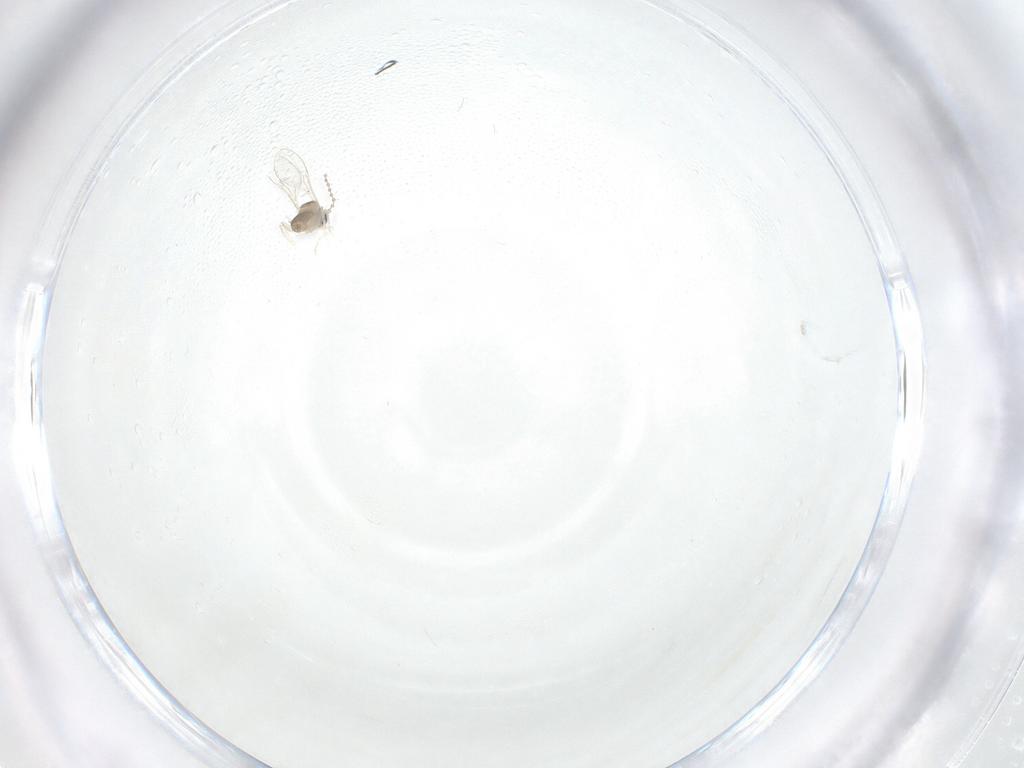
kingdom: Animalia
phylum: Arthropoda
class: Insecta
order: Diptera
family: Cecidomyiidae
